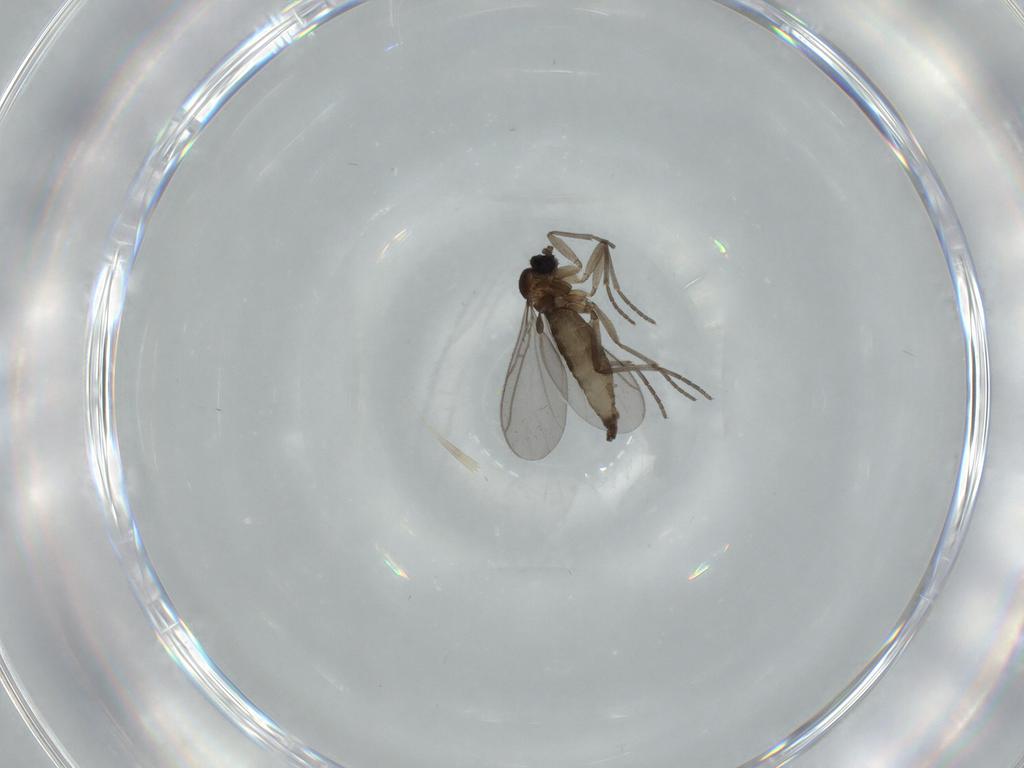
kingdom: Animalia
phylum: Arthropoda
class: Insecta
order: Diptera
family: Sciaridae
